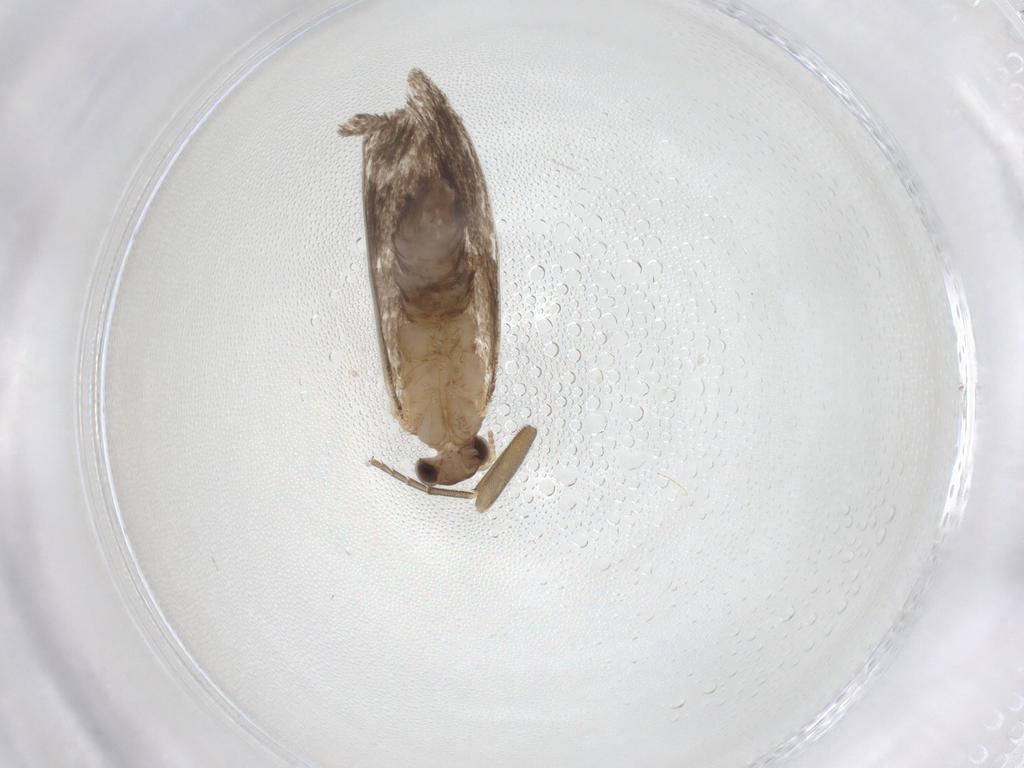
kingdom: Animalia
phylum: Arthropoda
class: Insecta
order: Lepidoptera
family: Dryadaulidae
